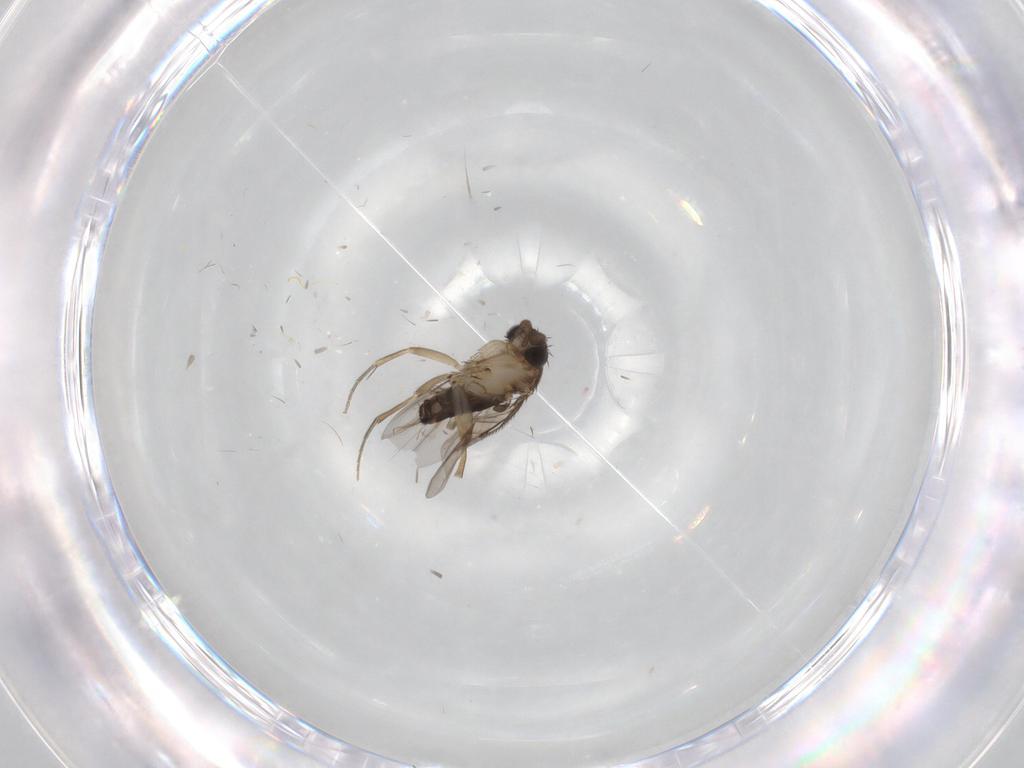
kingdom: Animalia
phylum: Arthropoda
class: Insecta
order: Diptera
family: Phoridae
